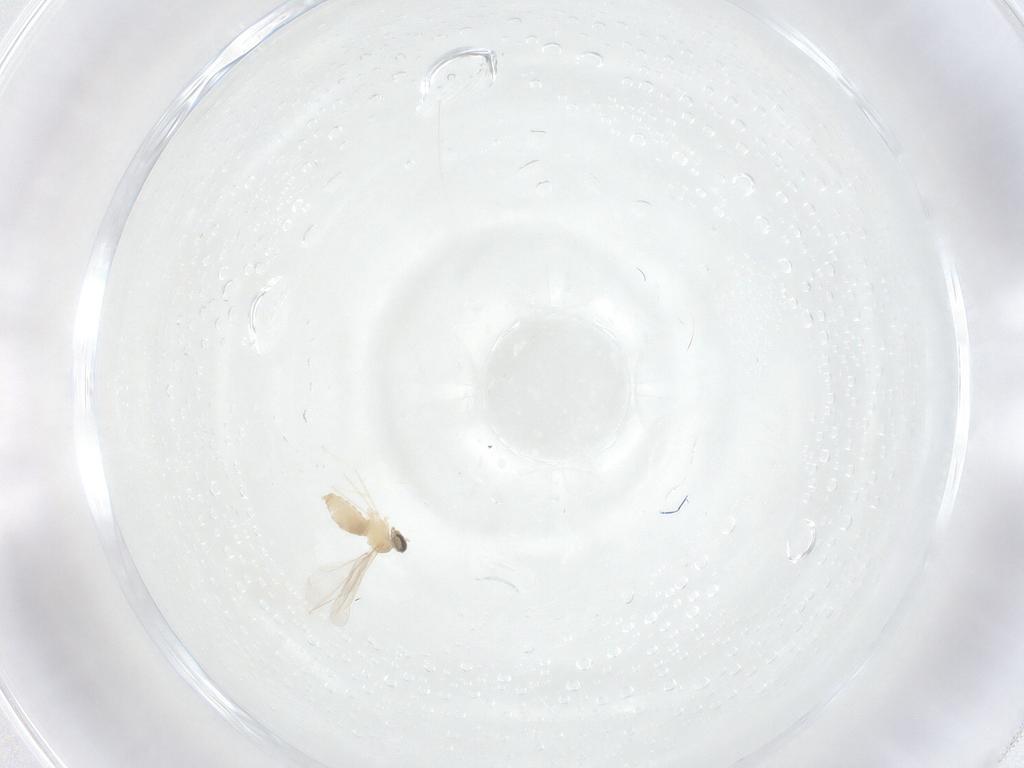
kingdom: Animalia
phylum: Arthropoda
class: Insecta
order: Diptera
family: Cecidomyiidae
